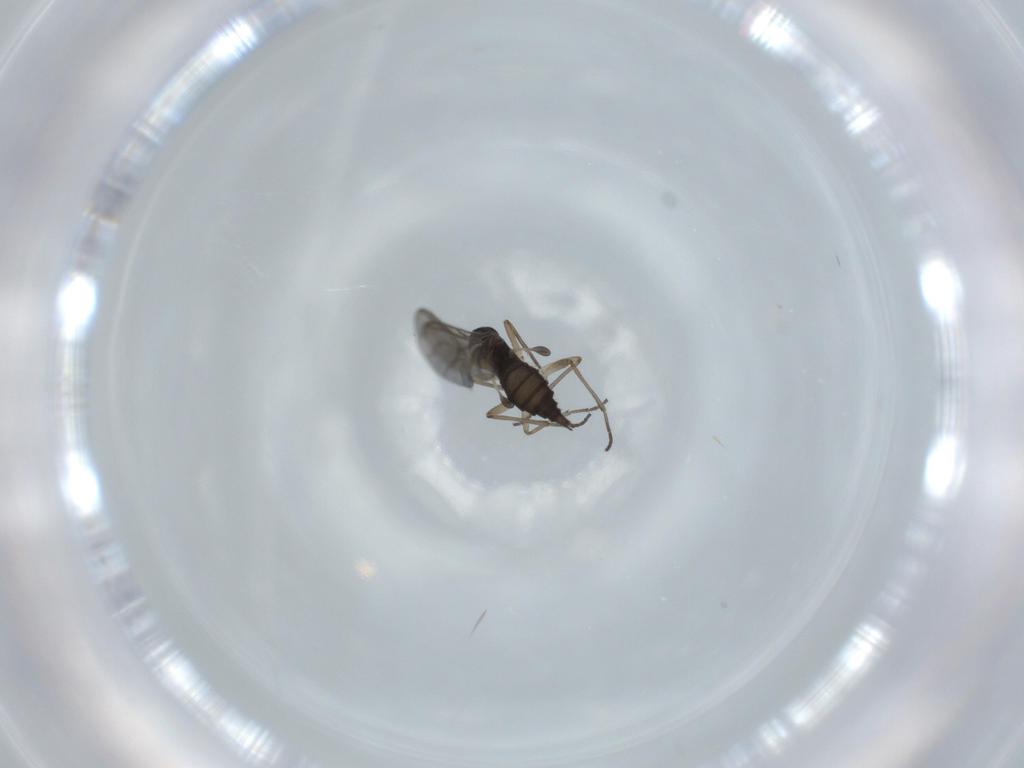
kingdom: Animalia
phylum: Arthropoda
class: Insecta
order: Diptera
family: Sciaridae
